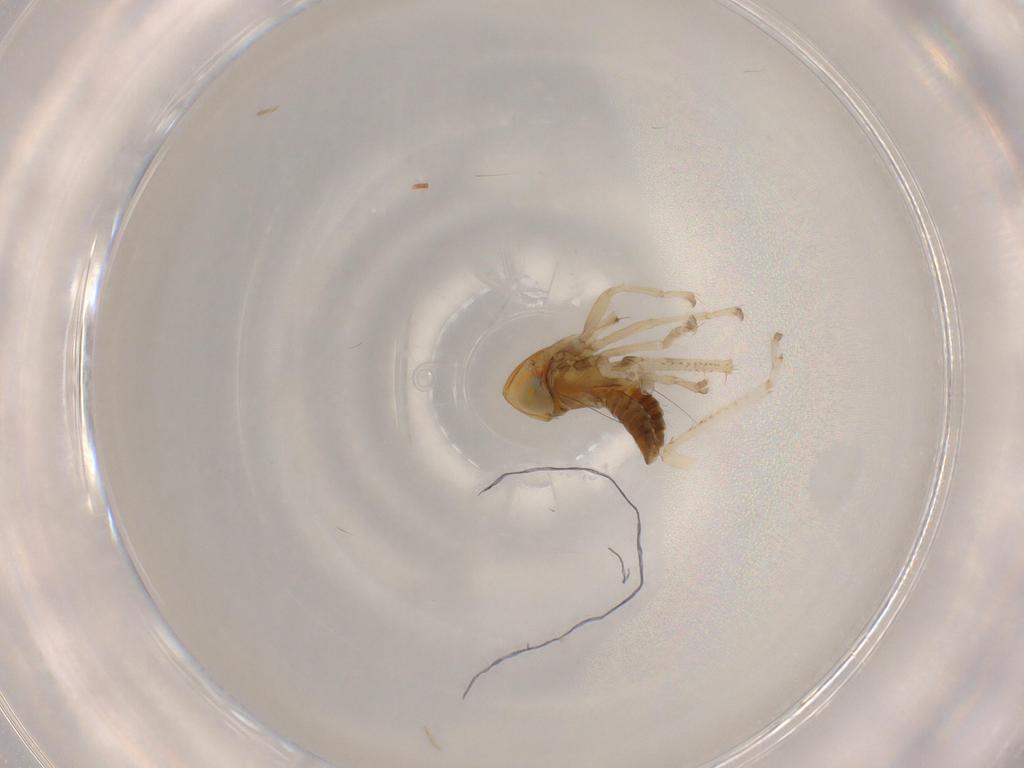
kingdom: Animalia
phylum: Arthropoda
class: Insecta
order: Hemiptera
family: Cicadellidae
